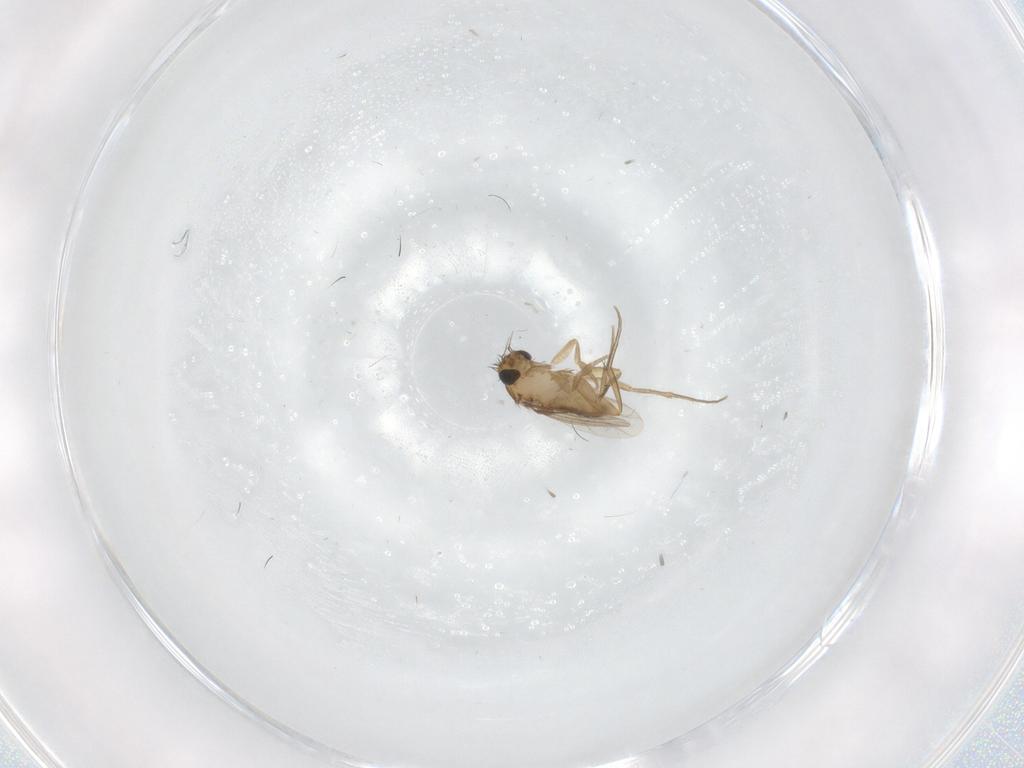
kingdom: Animalia
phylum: Arthropoda
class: Insecta
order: Diptera
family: Phoridae
